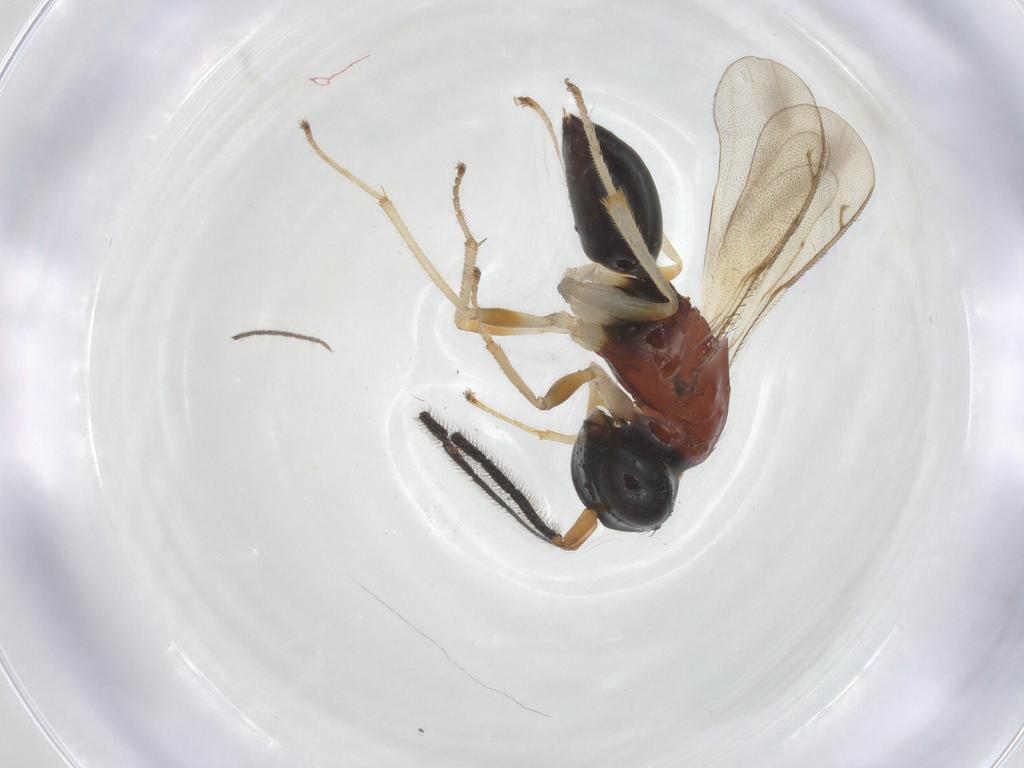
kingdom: Animalia
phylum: Arthropoda
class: Insecta
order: Hymenoptera
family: Diparidae
